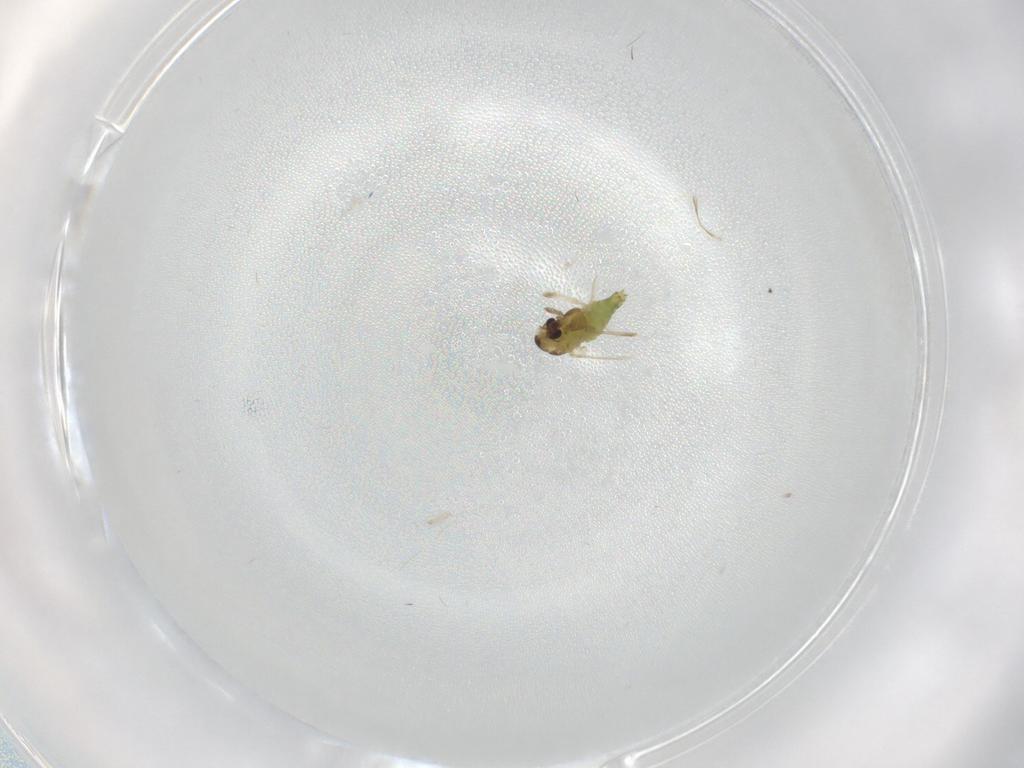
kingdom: Animalia
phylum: Arthropoda
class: Insecta
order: Diptera
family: Chironomidae
